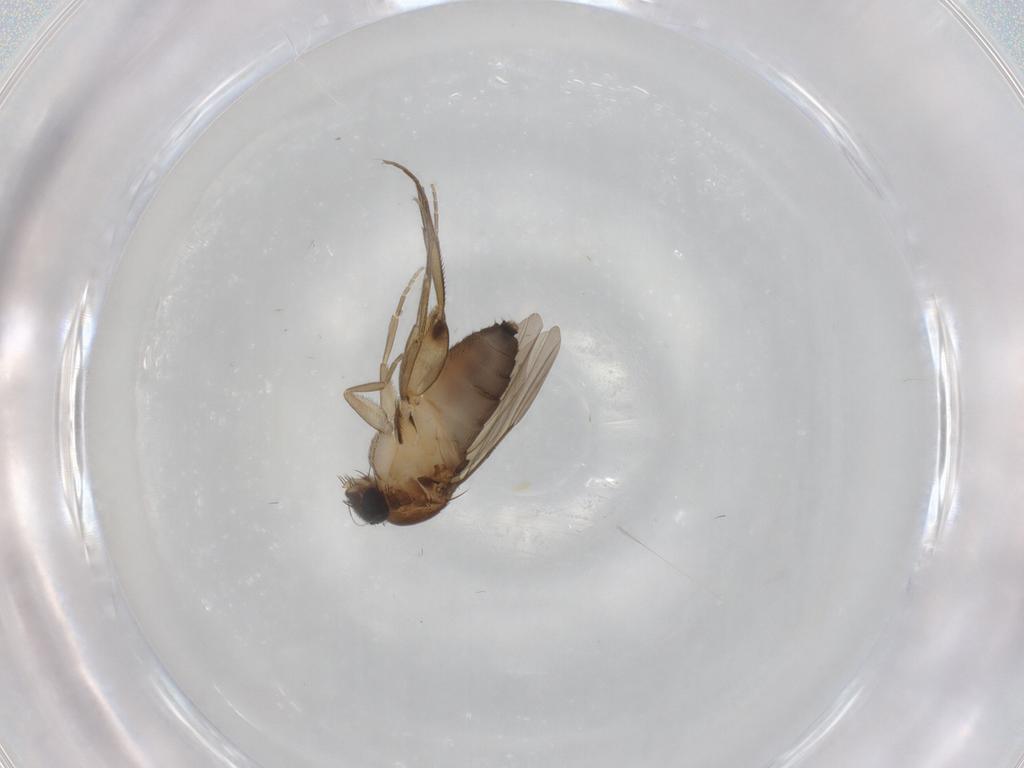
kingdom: Animalia
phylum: Arthropoda
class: Insecta
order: Diptera
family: Phoridae
